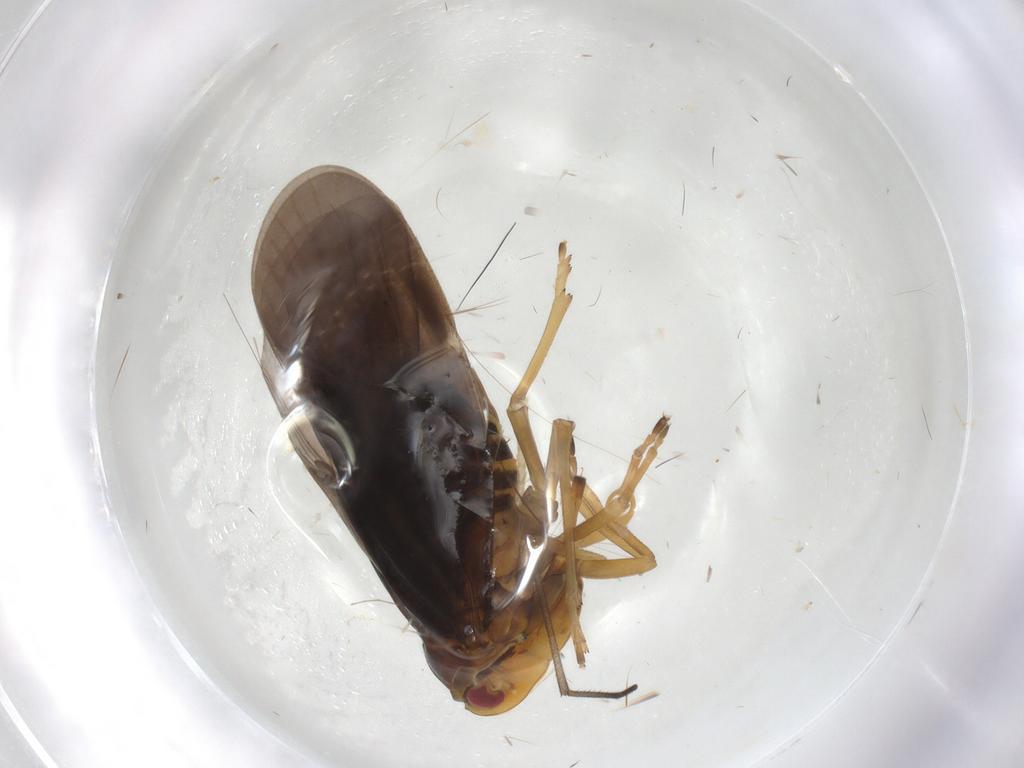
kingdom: Animalia
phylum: Arthropoda
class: Insecta
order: Hemiptera
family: Derbidae
